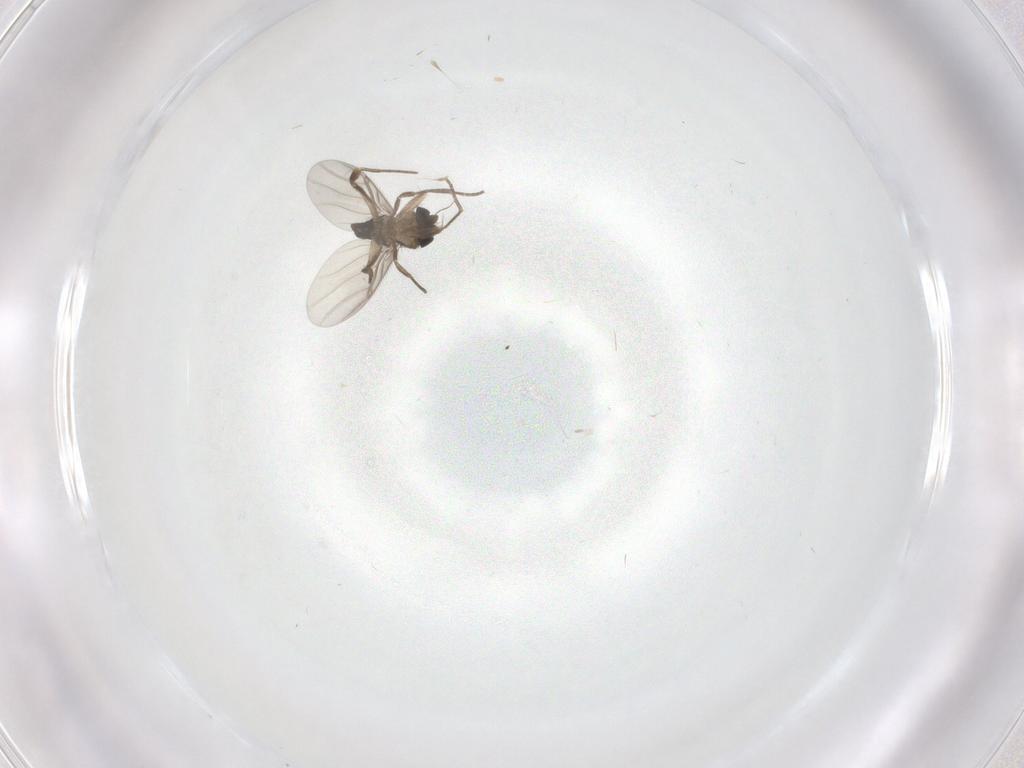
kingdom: Animalia
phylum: Arthropoda
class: Insecta
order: Diptera
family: Phoridae
